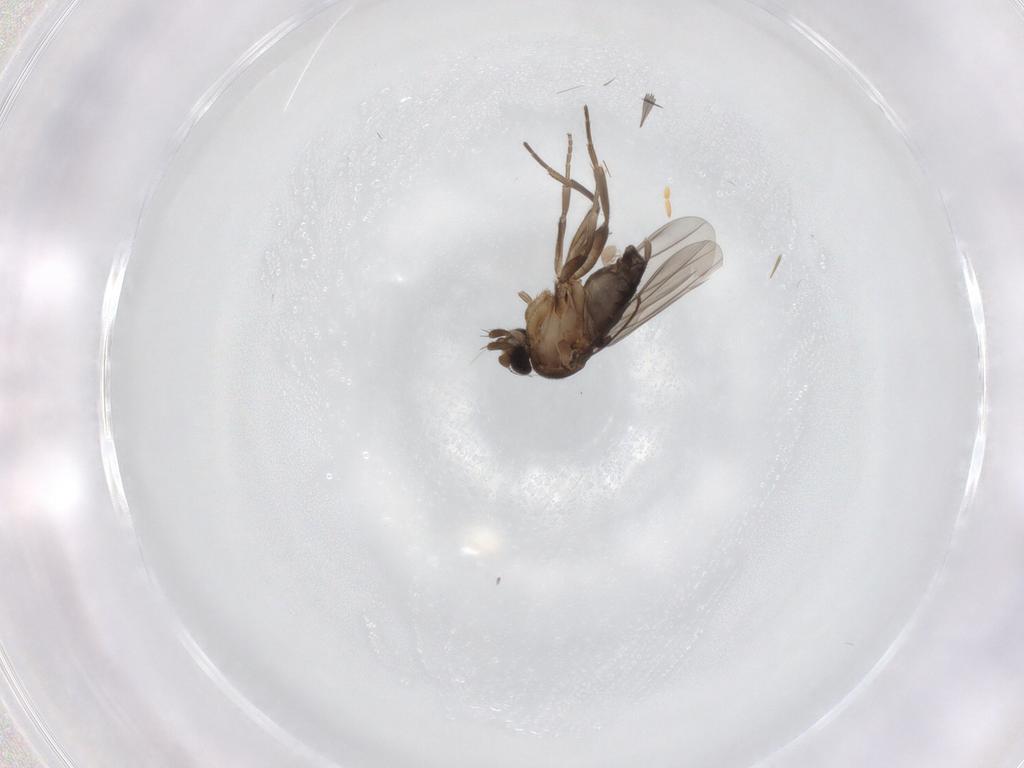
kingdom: Animalia
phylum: Arthropoda
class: Insecta
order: Diptera
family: Phoridae
